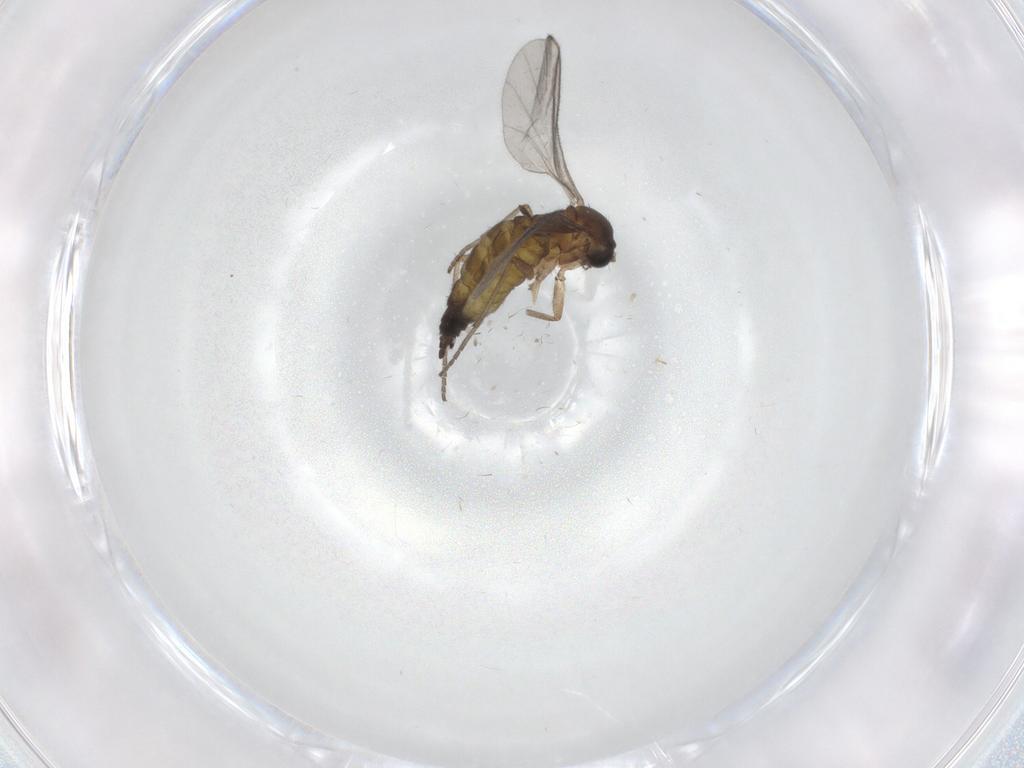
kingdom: Animalia
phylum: Arthropoda
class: Insecta
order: Diptera
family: Sciaridae
